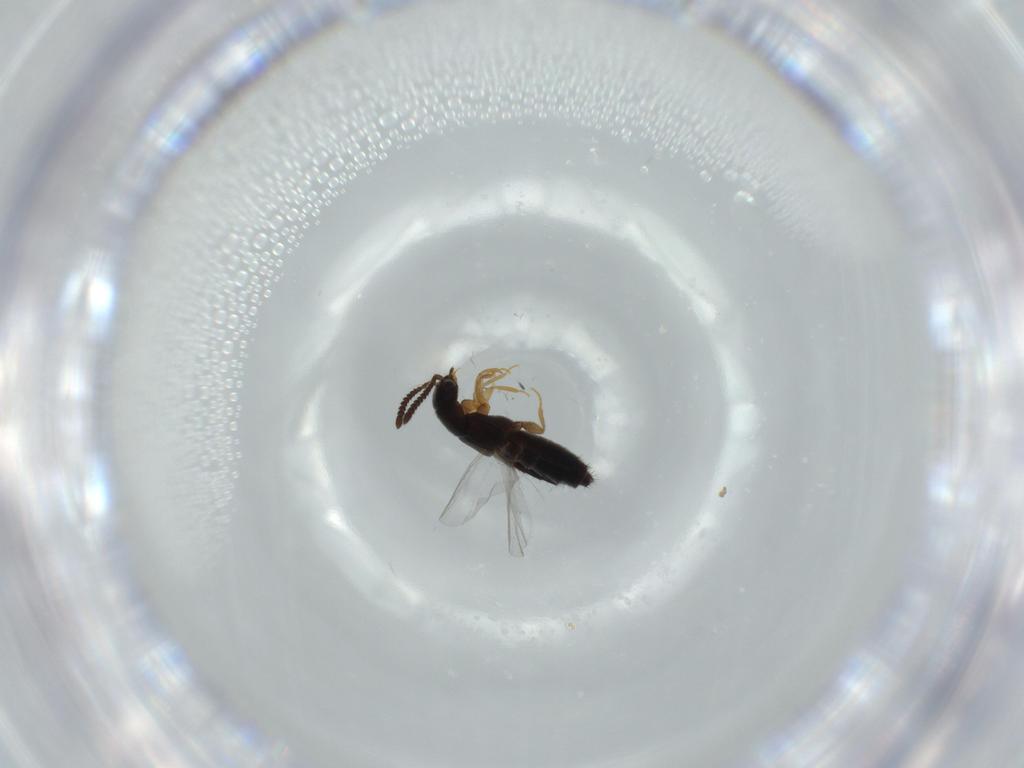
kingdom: Animalia
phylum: Arthropoda
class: Insecta
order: Coleoptera
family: Staphylinidae
